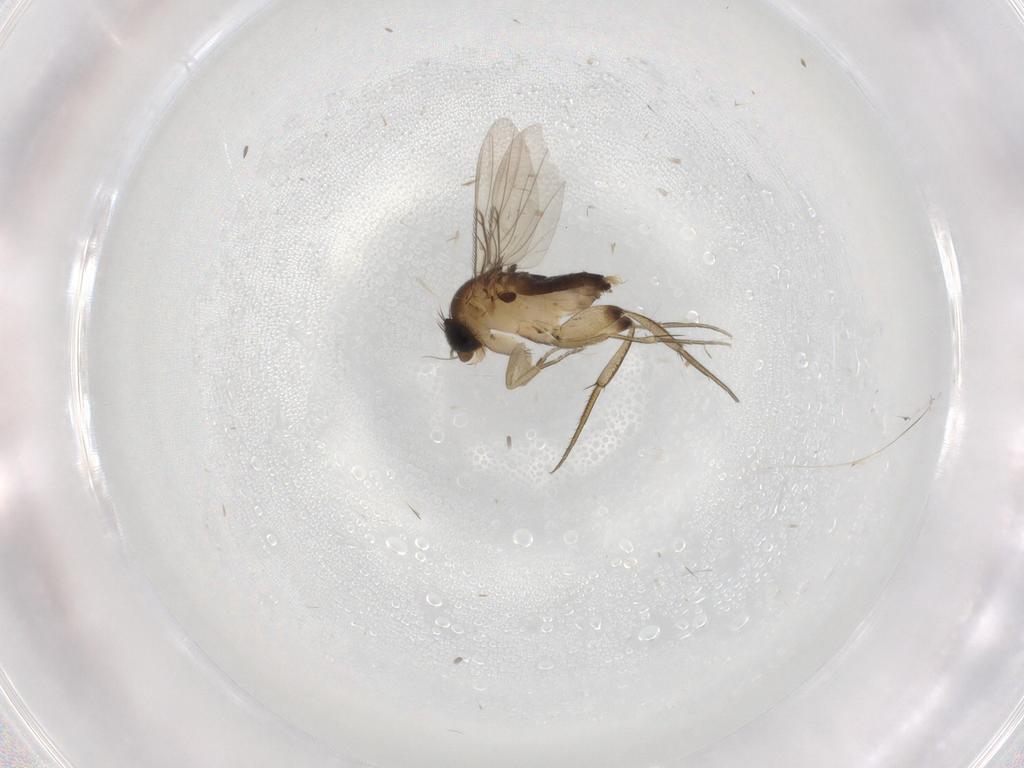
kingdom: Animalia
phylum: Arthropoda
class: Insecta
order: Diptera
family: Phoridae
